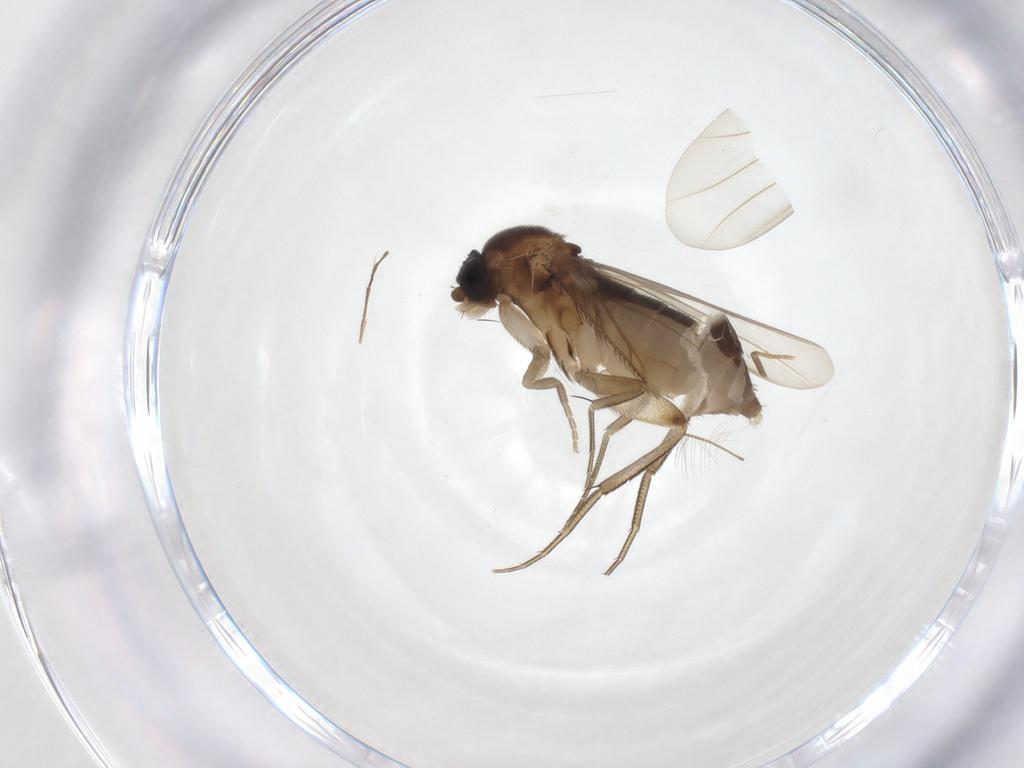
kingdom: Animalia
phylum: Arthropoda
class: Insecta
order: Diptera
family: Phoridae
